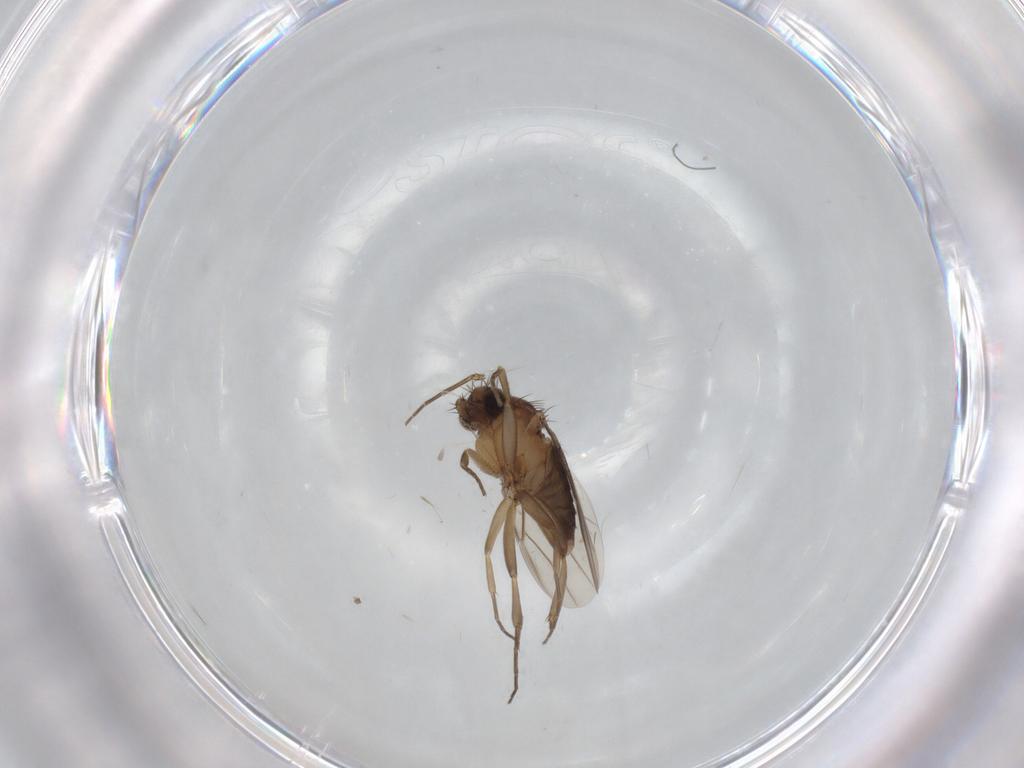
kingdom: Animalia
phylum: Arthropoda
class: Insecta
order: Diptera
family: Phoridae
